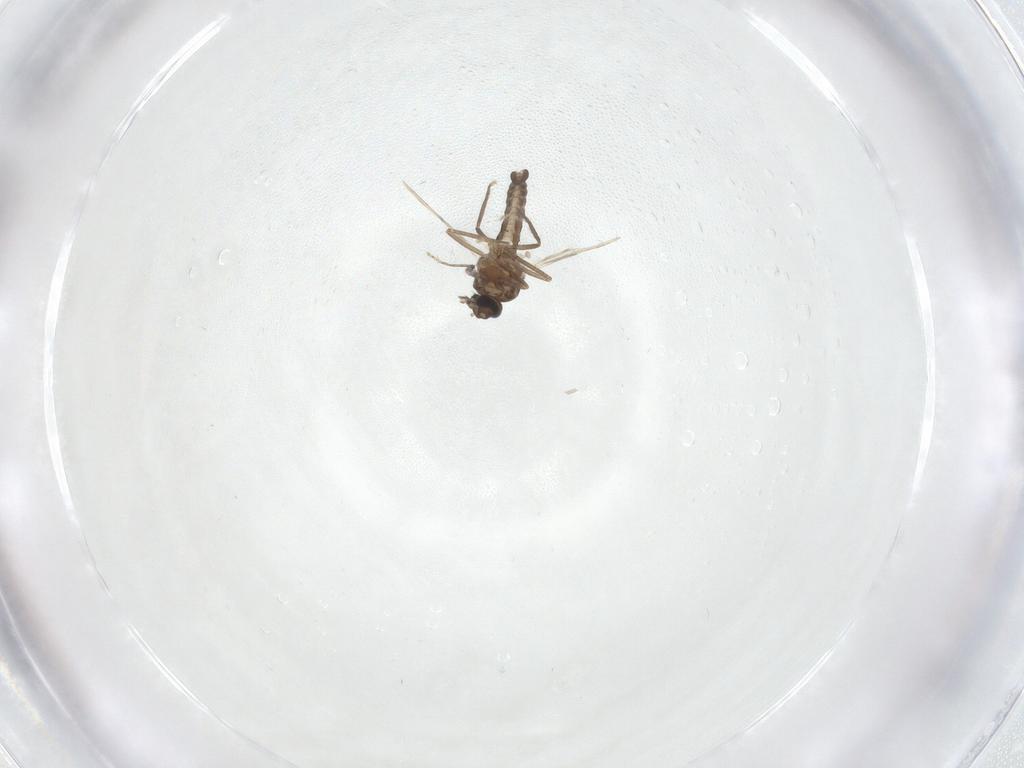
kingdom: Animalia
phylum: Arthropoda
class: Insecta
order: Diptera
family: Ceratopogonidae
